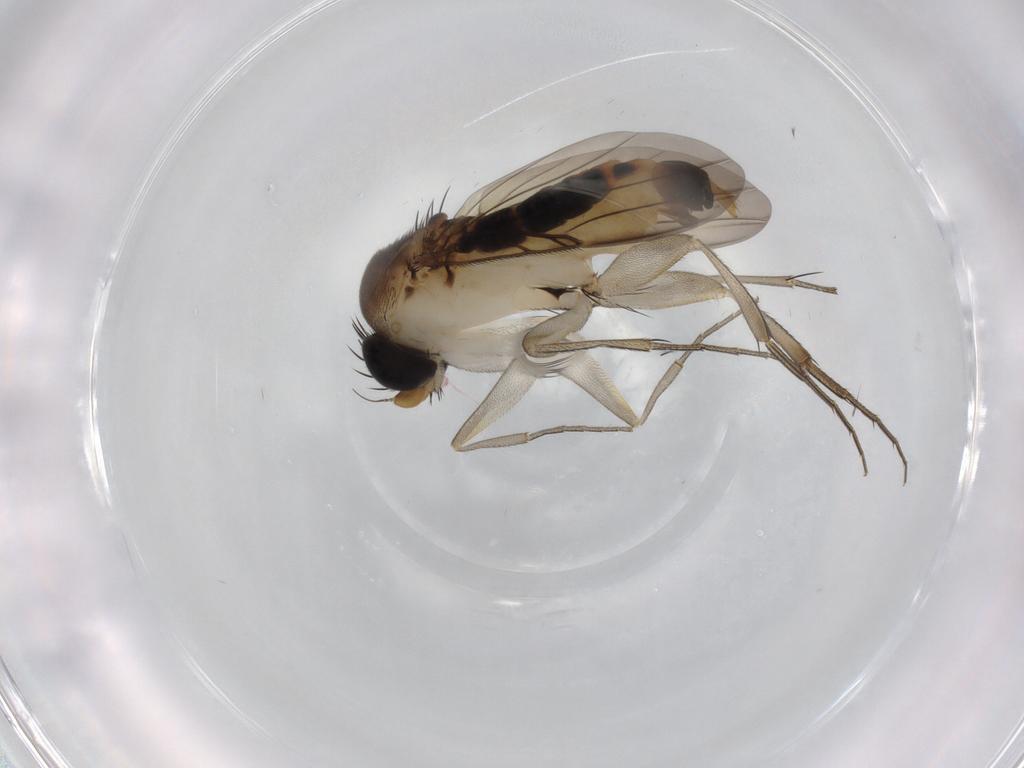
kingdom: Animalia
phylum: Arthropoda
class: Insecta
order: Diptera
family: Phoridae
